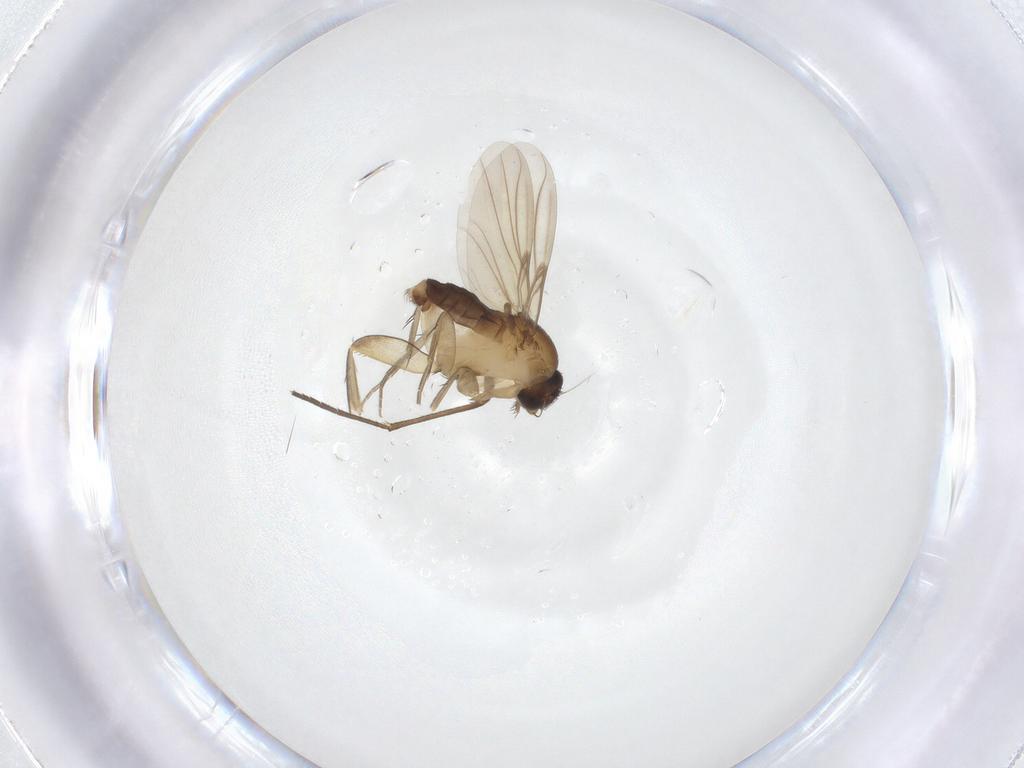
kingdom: Animalia
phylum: Arthropoda
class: Insecta
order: Diptera
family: Phoridae
